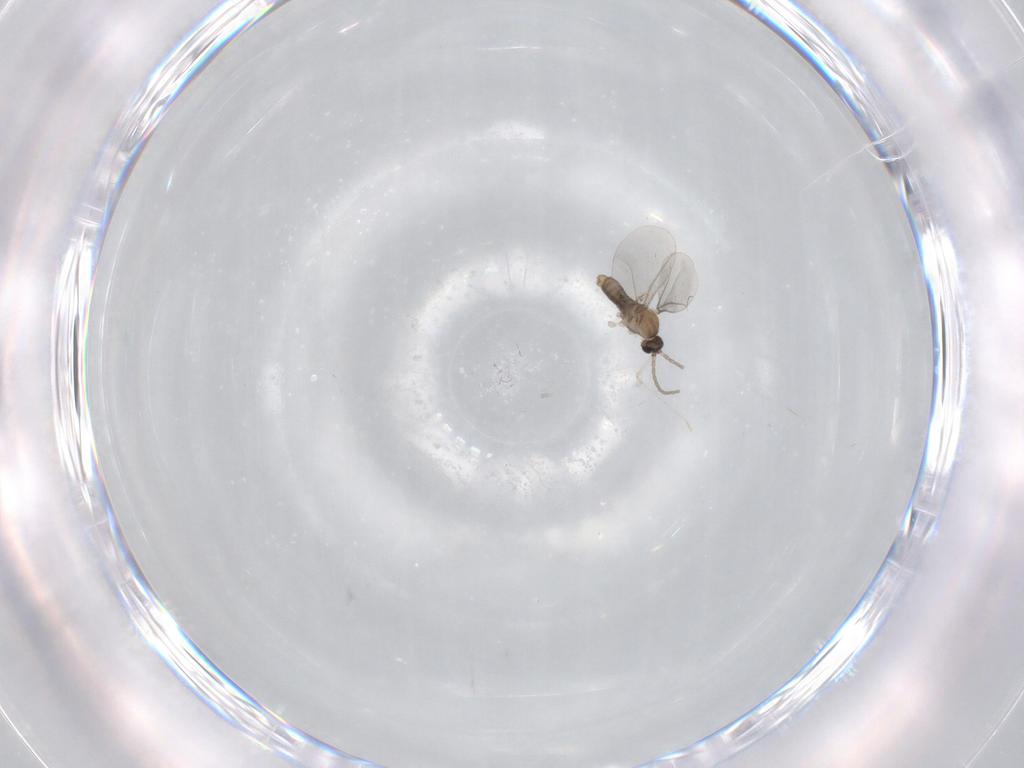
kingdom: Animalia
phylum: Arthropoda
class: Insecta
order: Diptera
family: Cecidomyiidae
